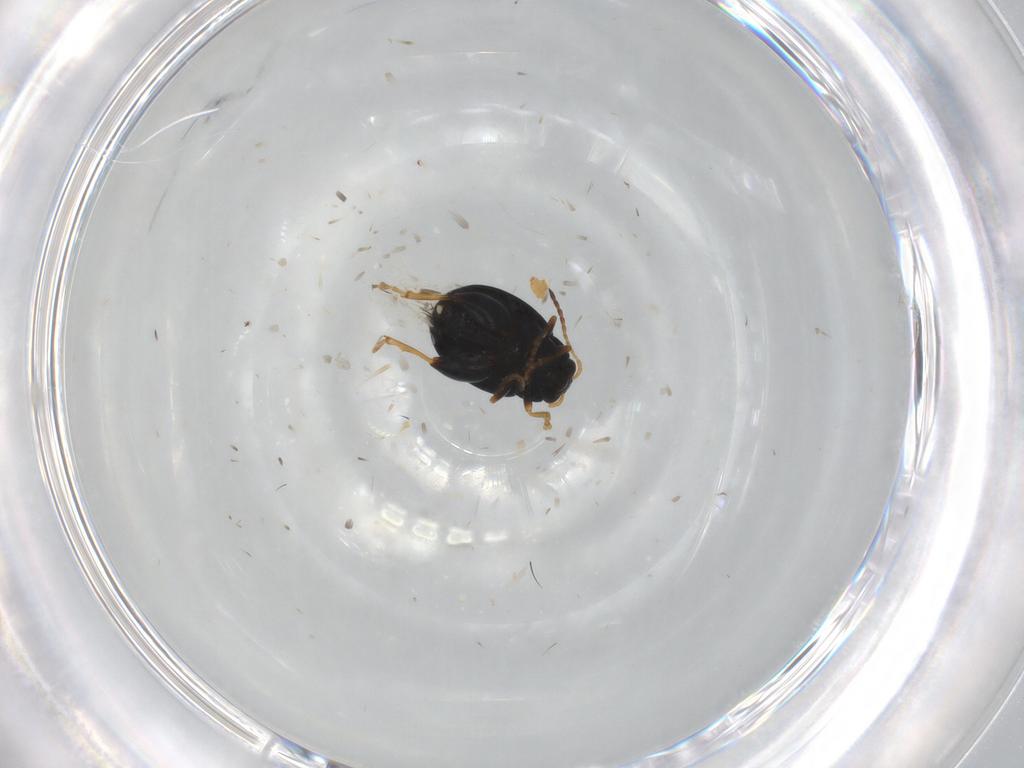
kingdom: Animalia
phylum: Arthropoda
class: Insecta
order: Coleoptera
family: Chrysomelidae
